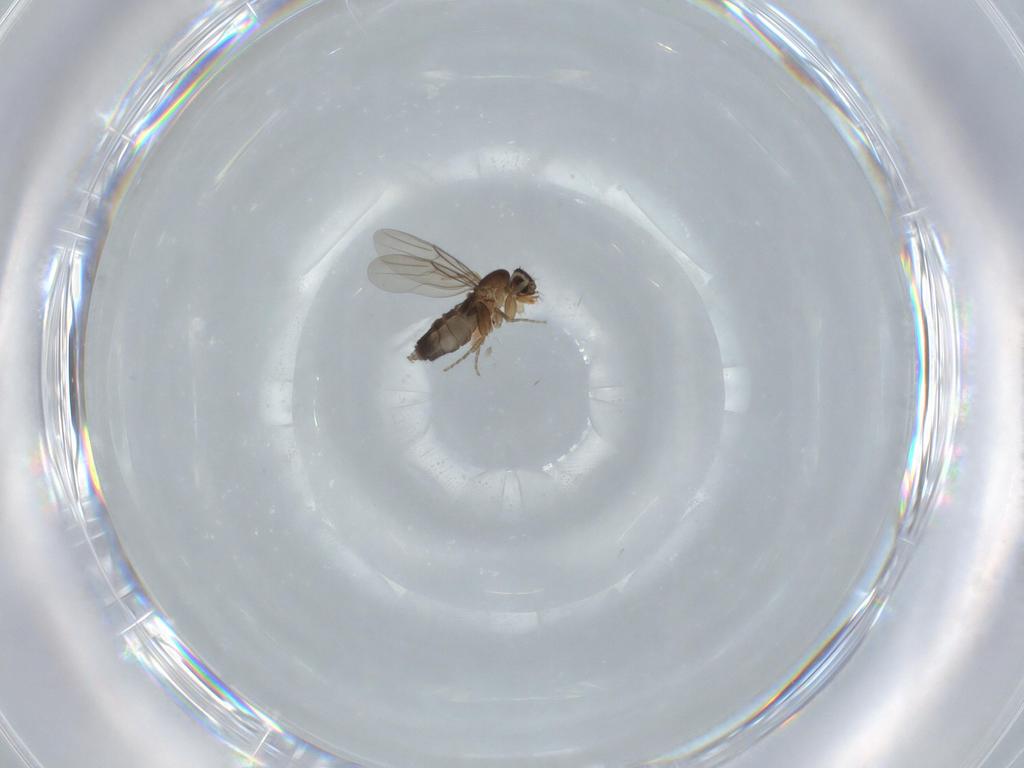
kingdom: Animalia
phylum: Arthropoda
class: Insecta
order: Diptera
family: Phoridae
